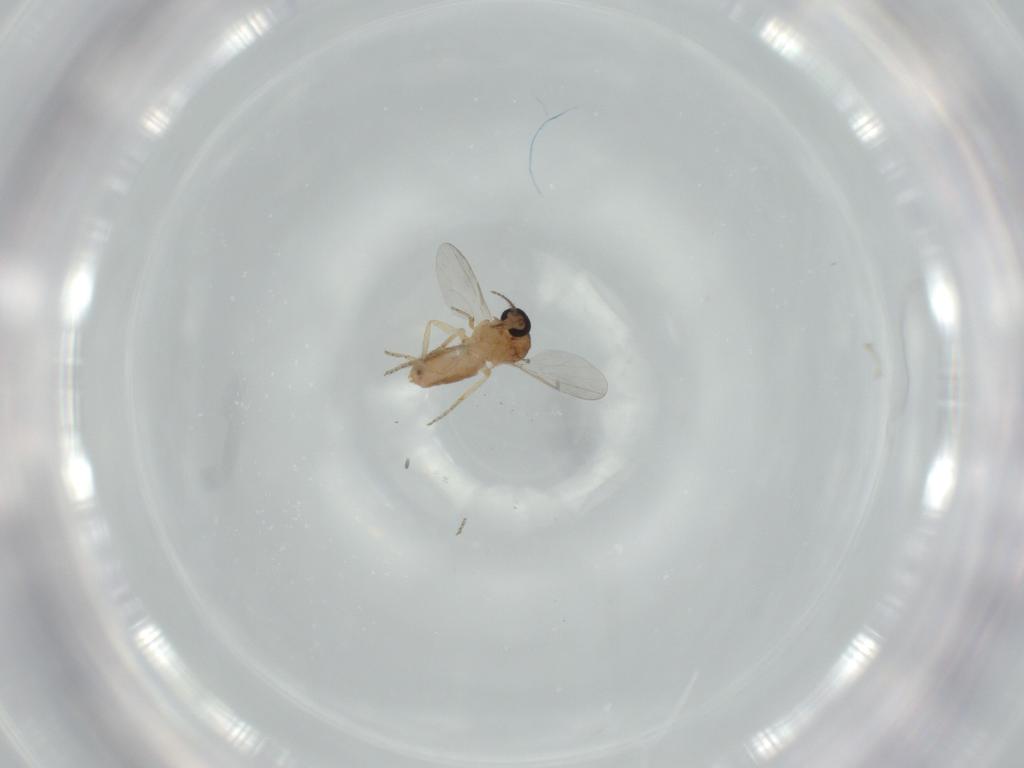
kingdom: Animalia
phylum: Arthropoda
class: Insecta
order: Diptera
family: Ceratopogonidae
